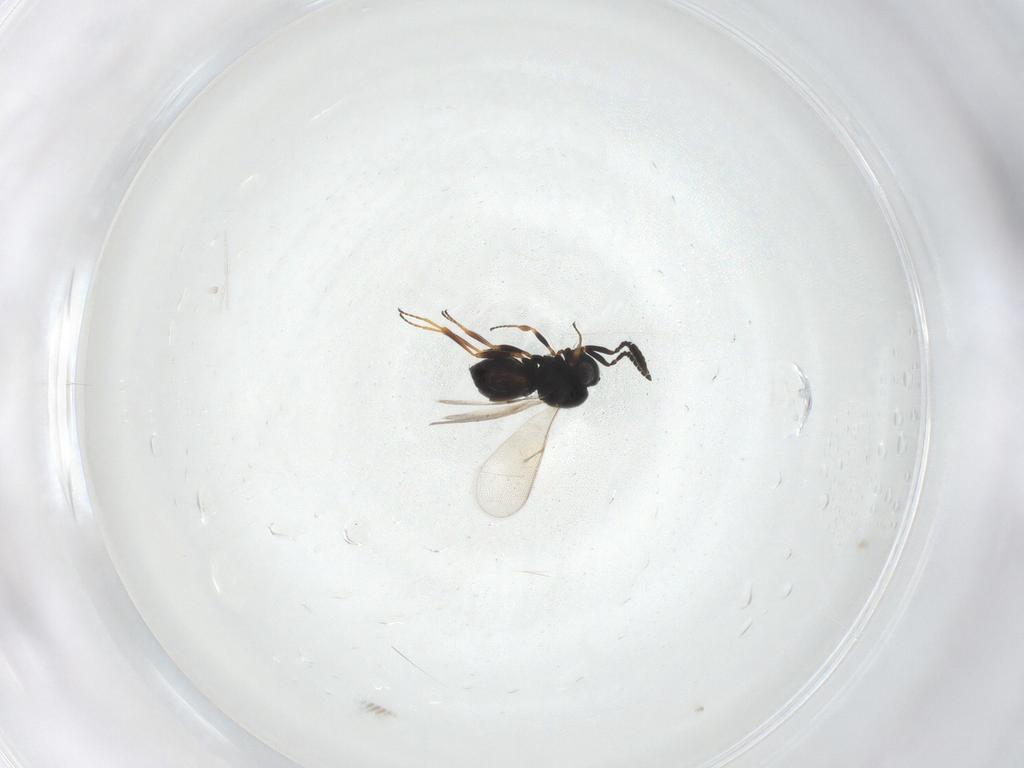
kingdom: Animalia
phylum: Arthropoda
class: Insecta
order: Hymenoptera
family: Scelionidae
